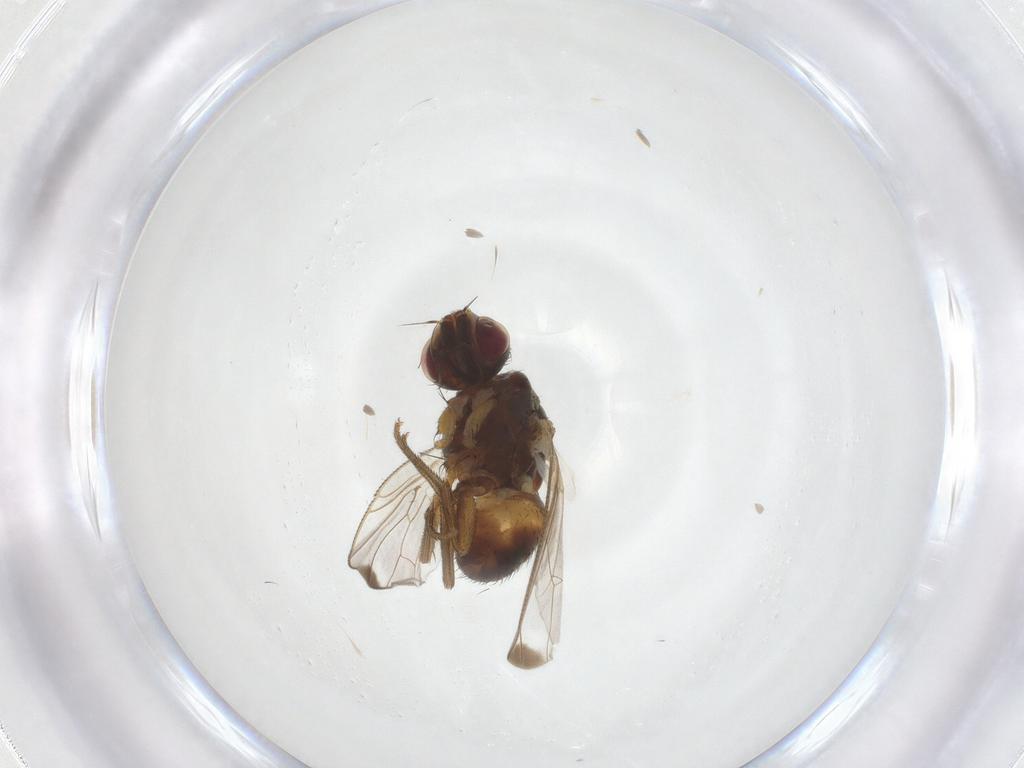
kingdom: Animalia
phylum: Arthropoda
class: Insecta
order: Diptera
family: Muscidae
